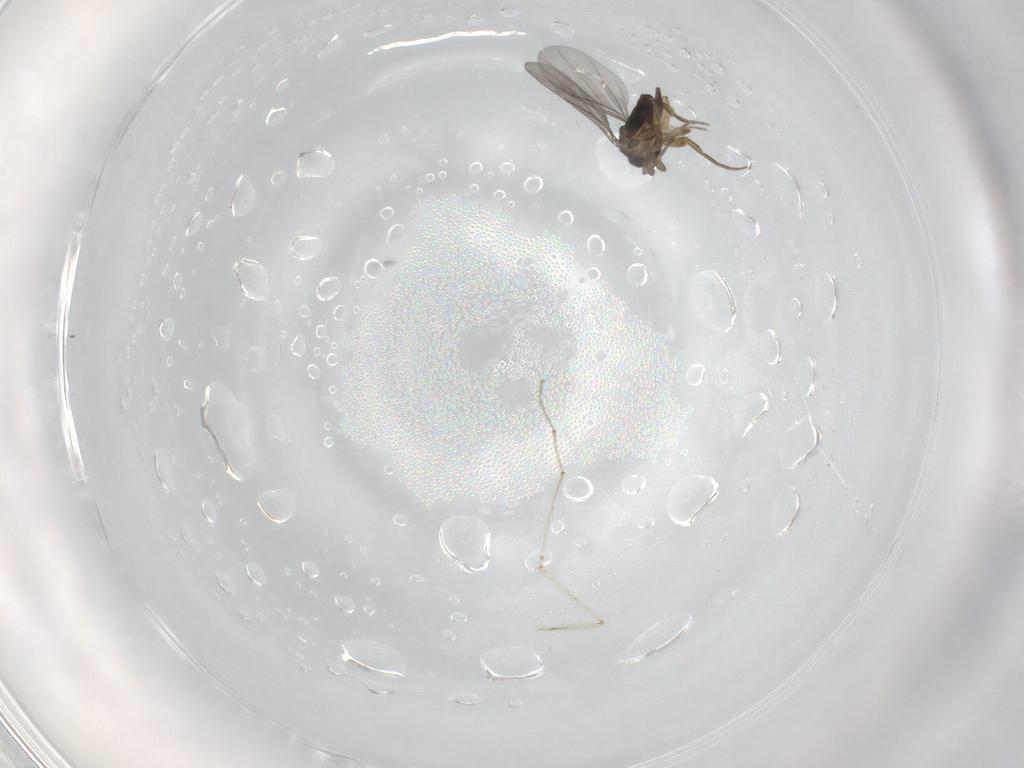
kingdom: Animalia
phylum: Arthropoda
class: Insecta
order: Diptera
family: Cecidomyiidae
